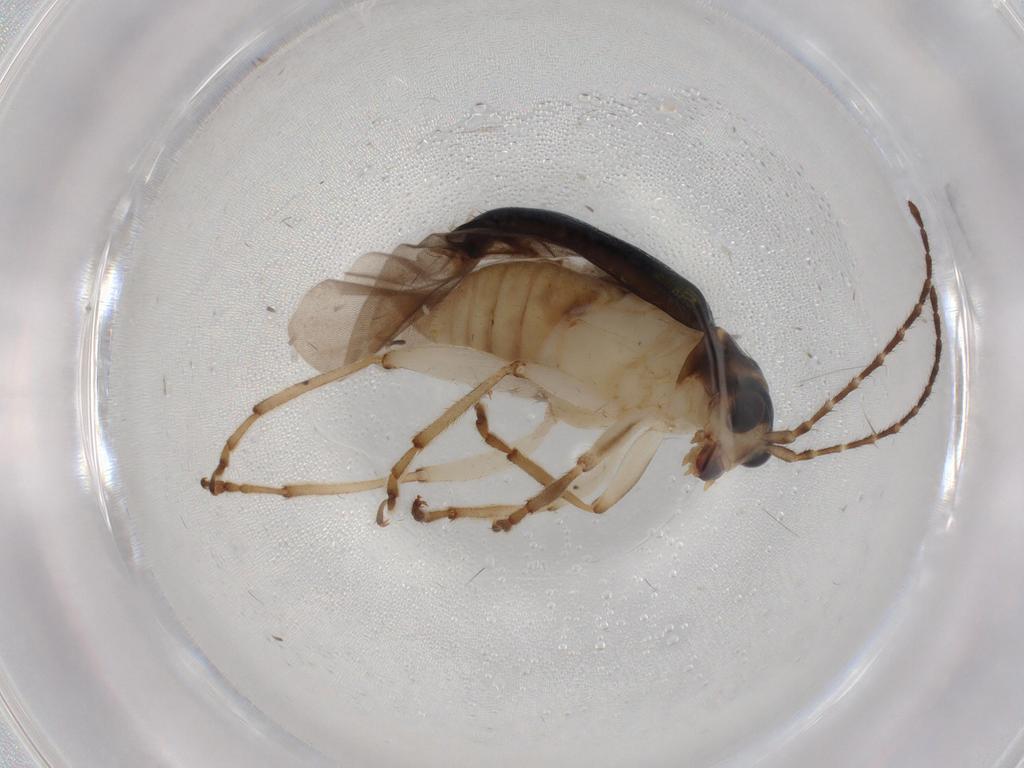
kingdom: Animalia
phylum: Arthropoda
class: Insecta
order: Coleoptera
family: Chrysomelidae
